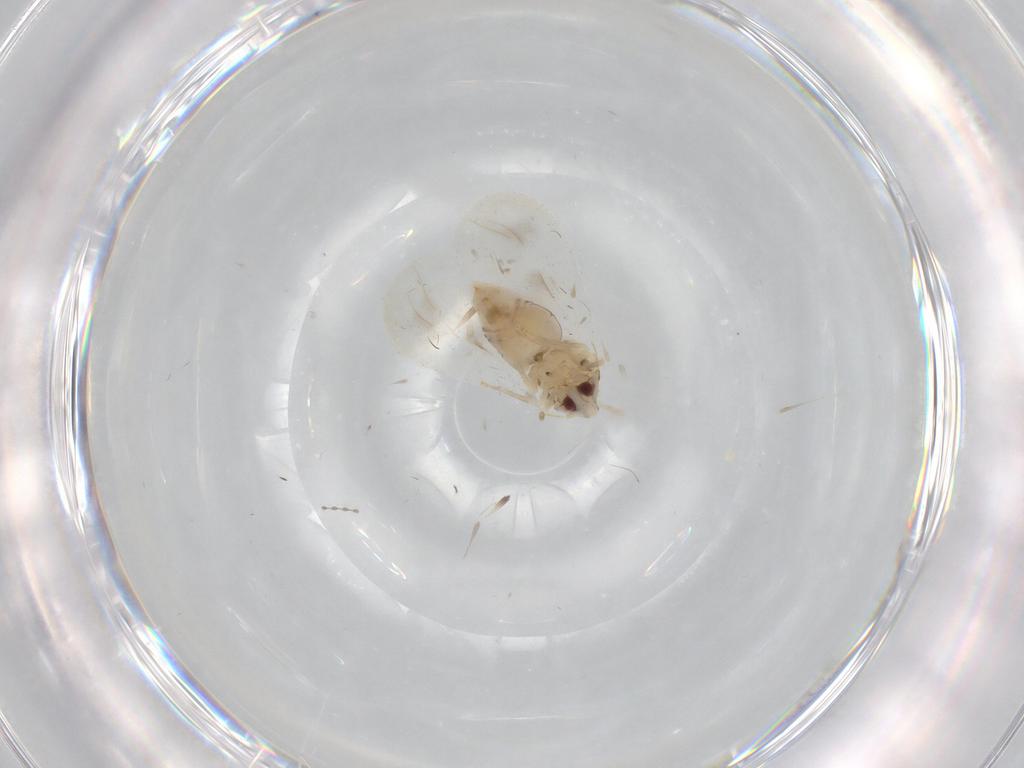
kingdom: Animalia
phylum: Arthropoda
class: Insecta
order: Hemiptera
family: Aleyrodidae
